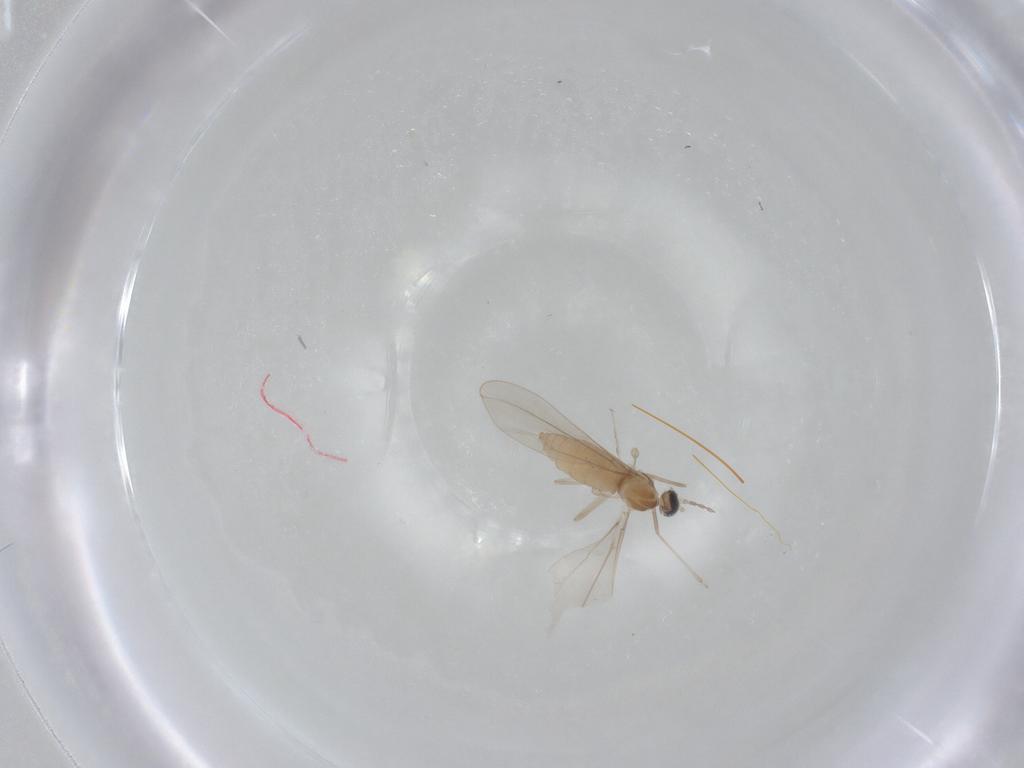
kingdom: Animalia
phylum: Arthropoda
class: Insecta
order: Diptera
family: Cecidomyiidae
